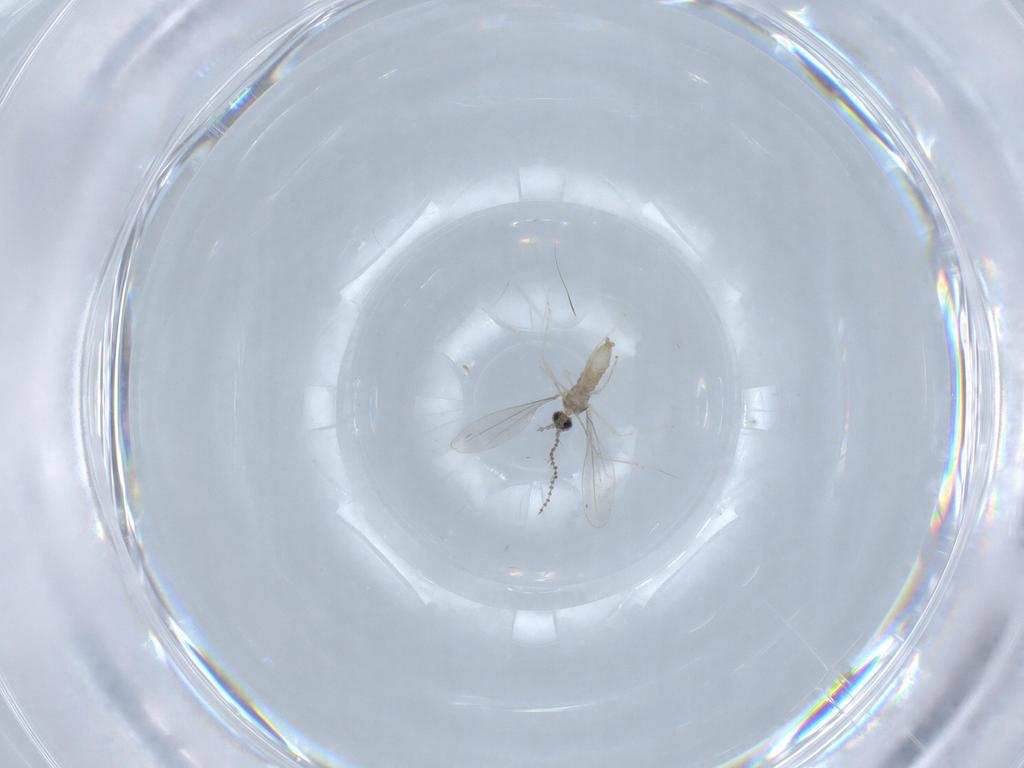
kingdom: Animalia
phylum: Arthropoda
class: Insecta
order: Diptera
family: Cecidomyiidae
